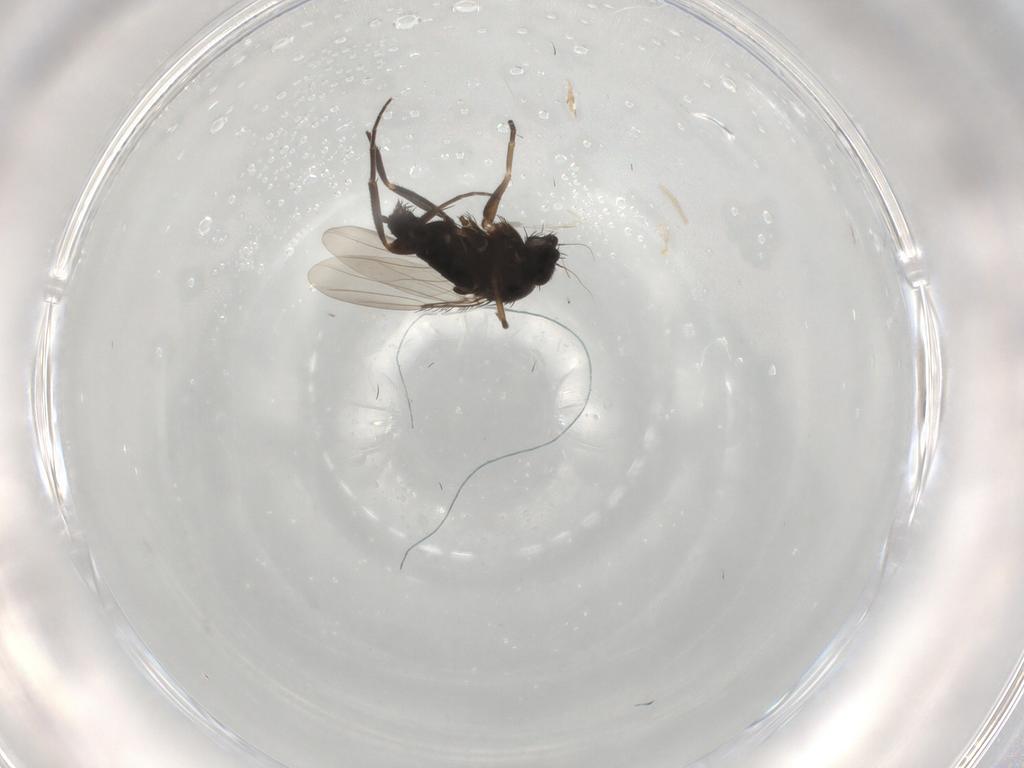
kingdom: Animalia
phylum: Arthropoda
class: Insecta
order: Diptera
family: Phoridae
